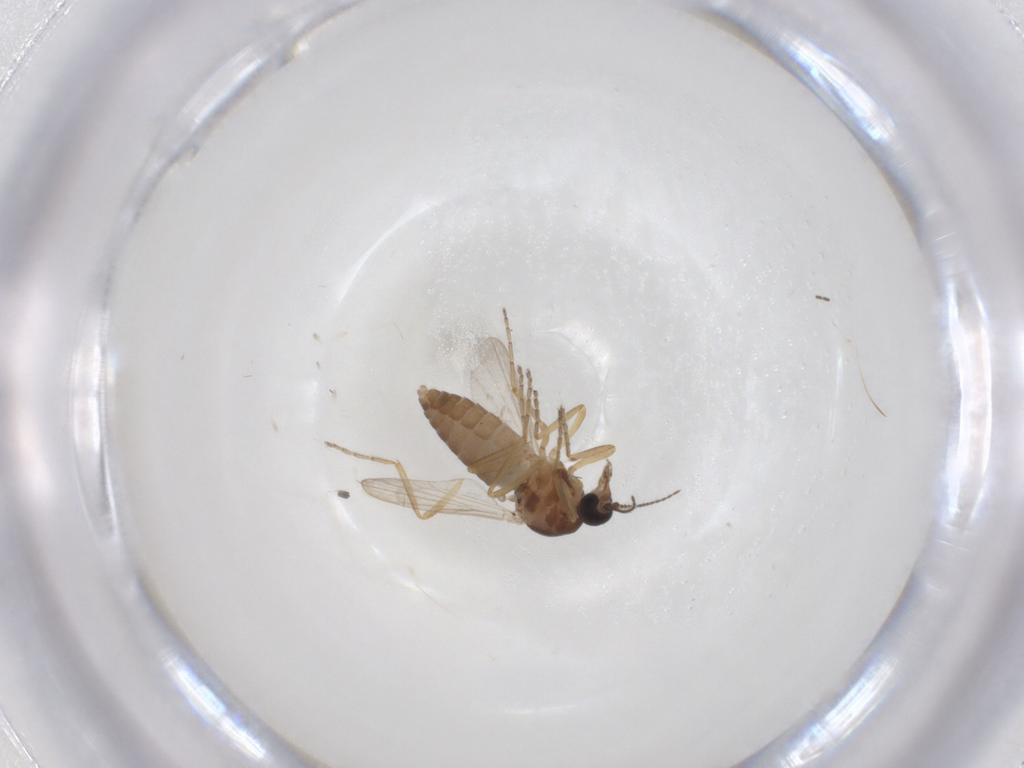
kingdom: Animalia
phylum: Arthropoda
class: Insecta
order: Diptera
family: Ceratopogonidae
